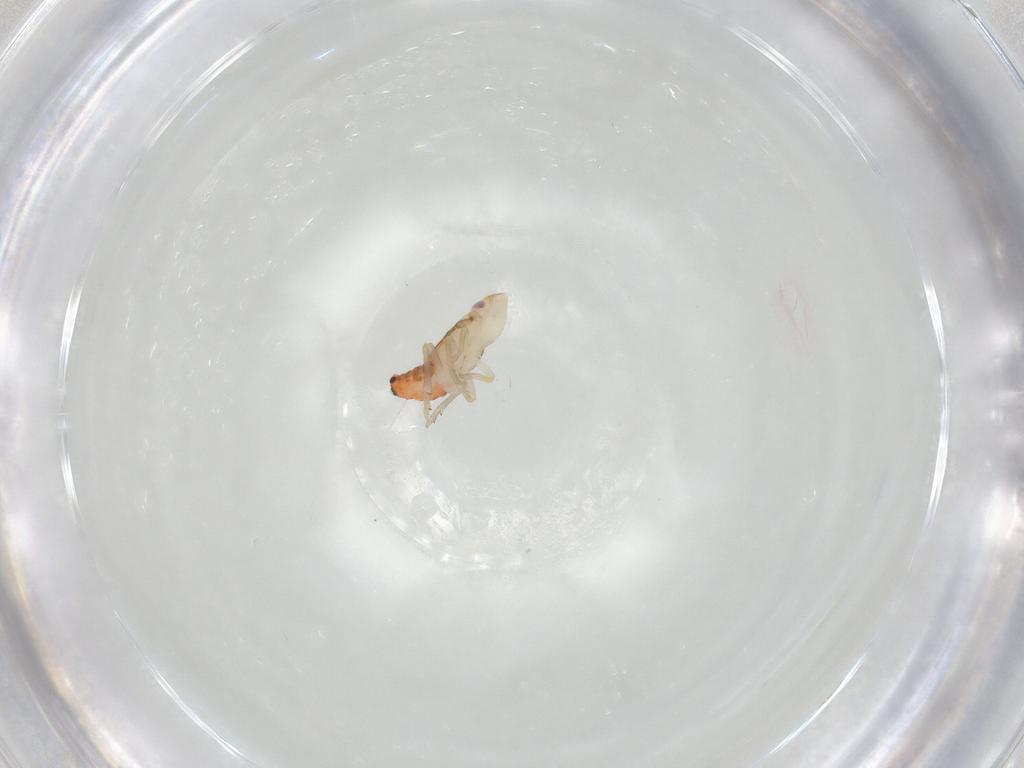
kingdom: Animalia
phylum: Arthropoda
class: Insecta
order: Hemiptera
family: Tropiduchidae
